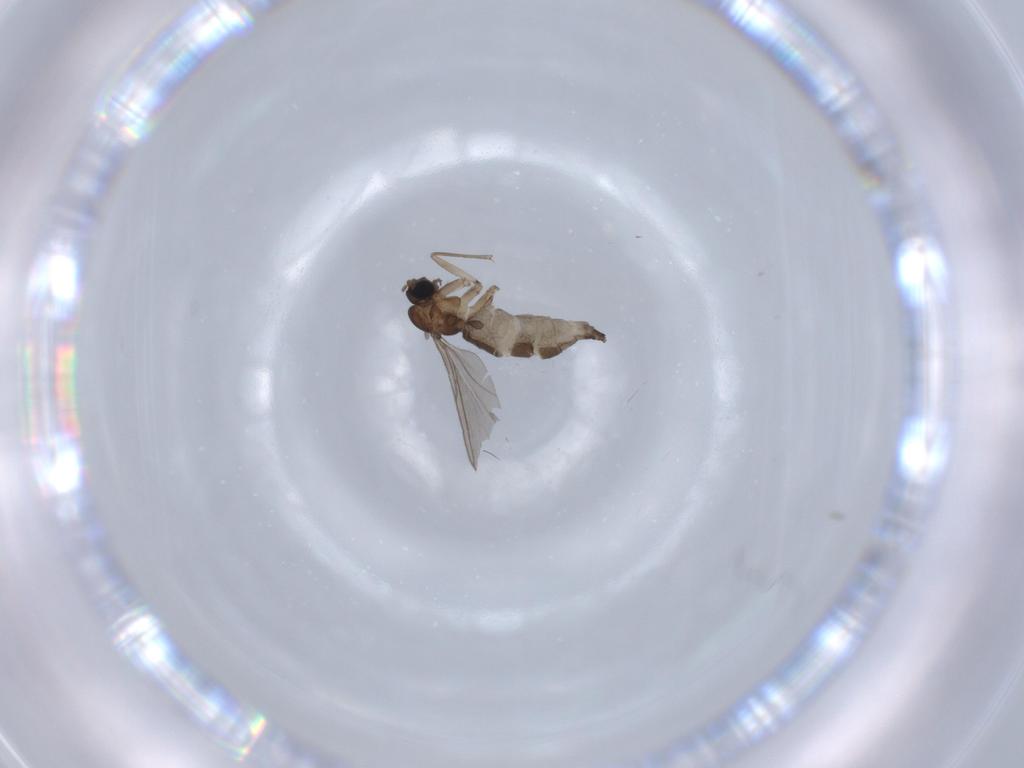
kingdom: Animalia
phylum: Arthropoda
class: Insecta
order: Diptera
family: Sciaridae
